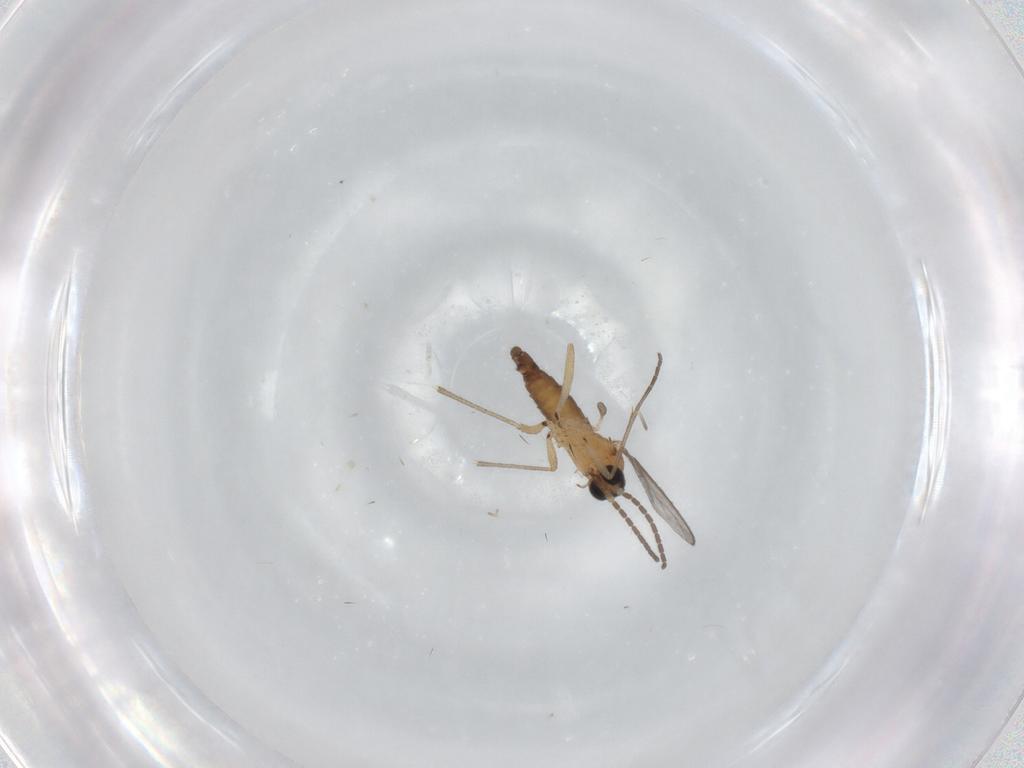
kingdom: Animalia
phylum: Arthropoda
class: Insecta
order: Diptera
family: Sciaridae
